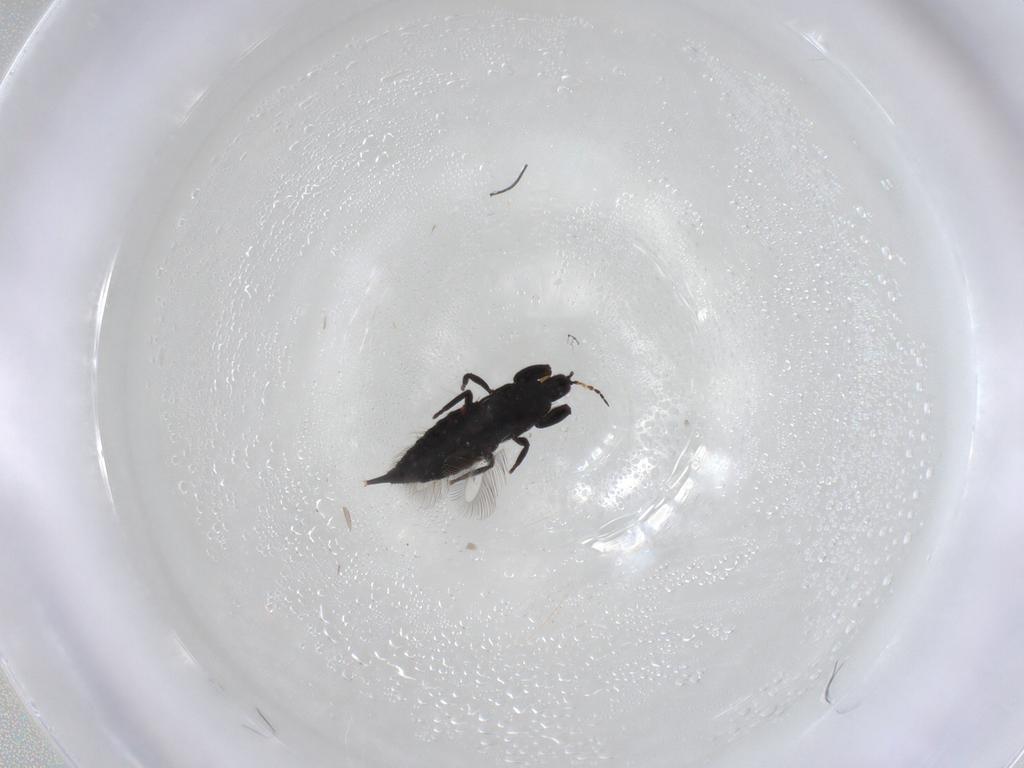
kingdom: Animalia
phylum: Arthropoda
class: Insecta
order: Thysanoptera
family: Phlaeothripidae
